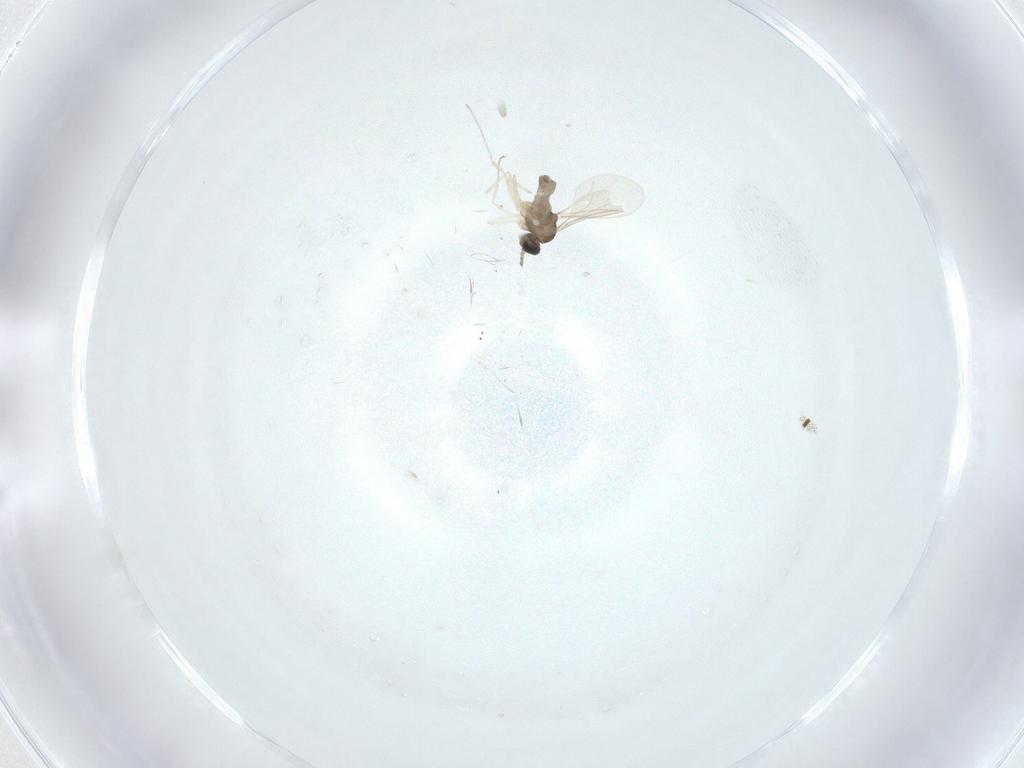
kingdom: Animalia
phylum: Arthropoda
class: Insecta
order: Diptera
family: Cecidomyiidae
